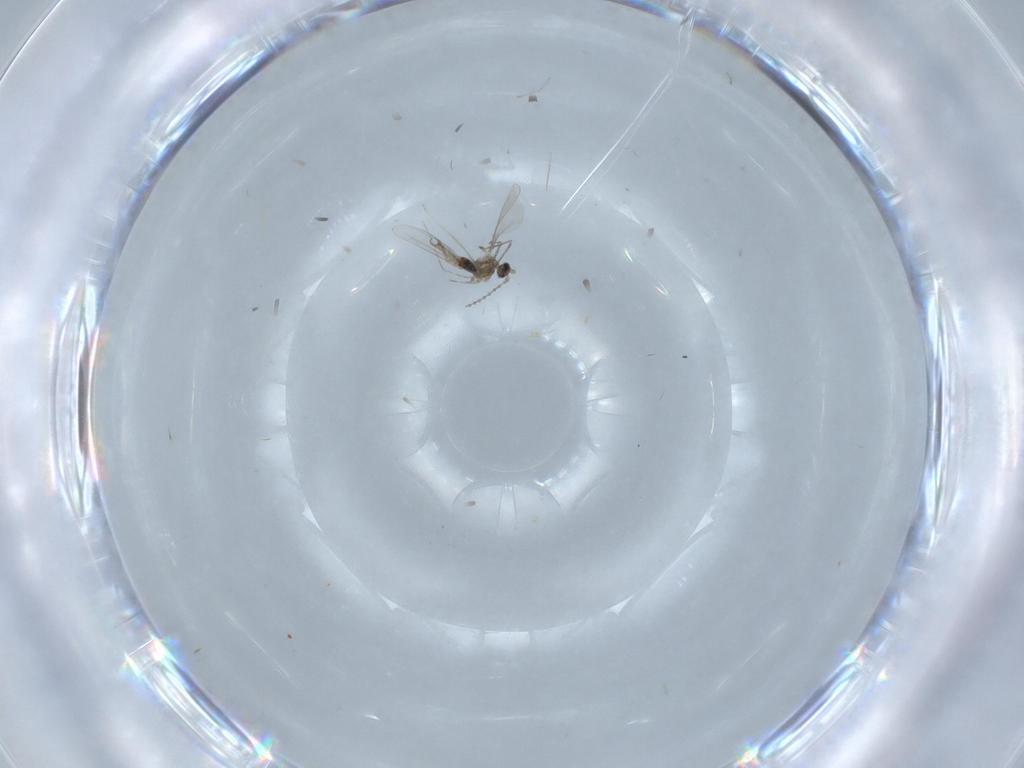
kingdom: Animalia
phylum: Arthropoda
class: Insecta
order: Diptera
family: Cecidomyiidae
